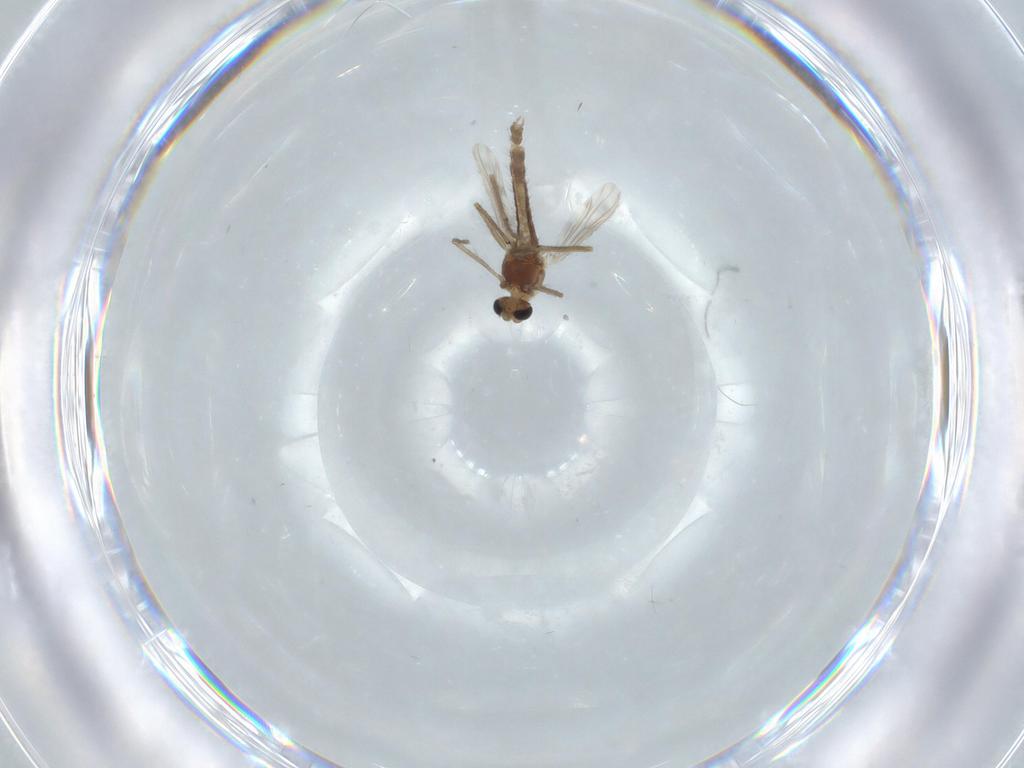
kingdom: Animalia
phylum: Arthropoda
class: Insecta
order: Diptera
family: Chironomidae
